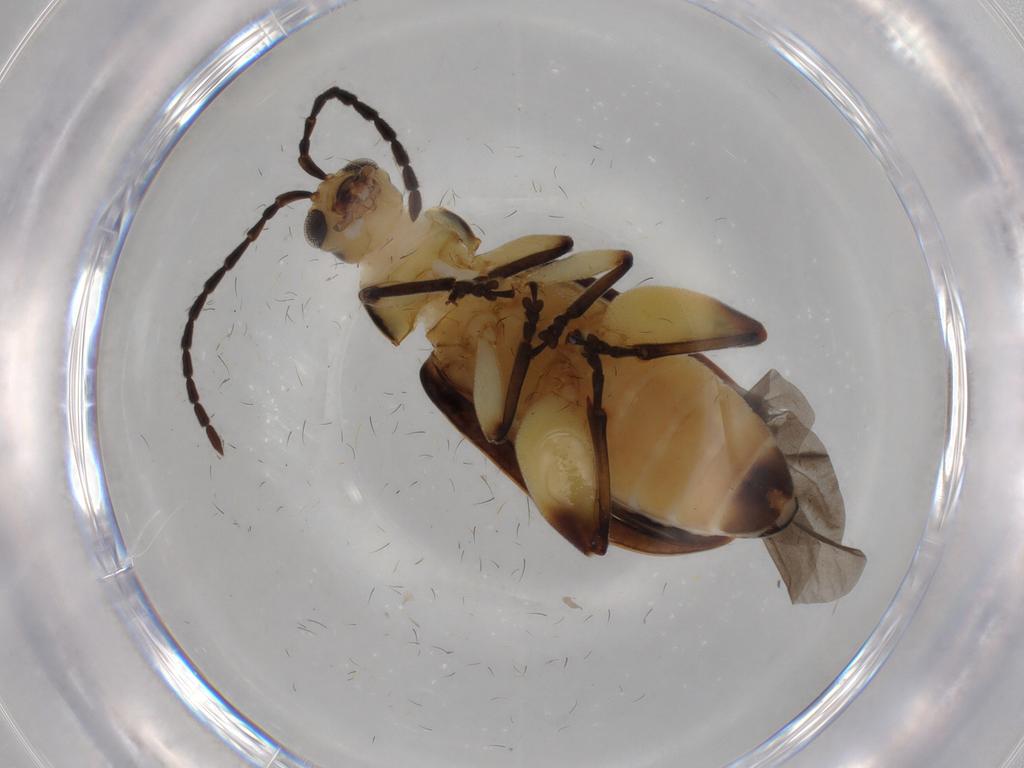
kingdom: Animalia
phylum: Arthropoda
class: Insecta
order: Coleoptera
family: Chrysomelidae
